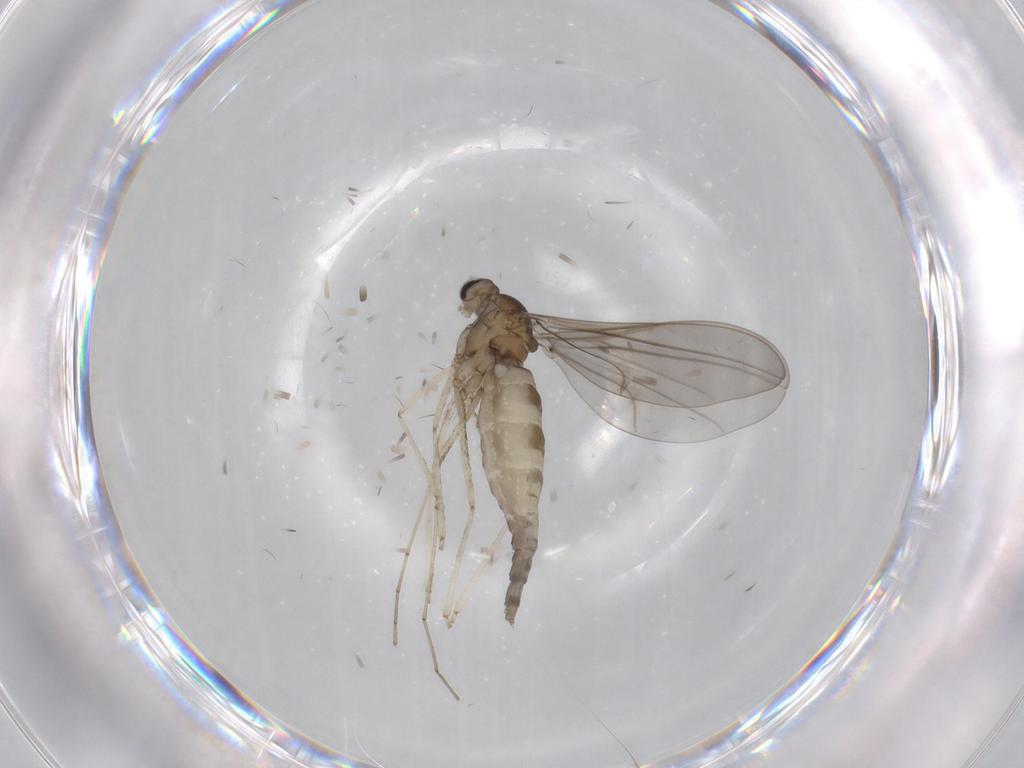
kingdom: Animalia
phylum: Arthropoda
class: Insecta
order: Diptera
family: Cecidomyiidae
